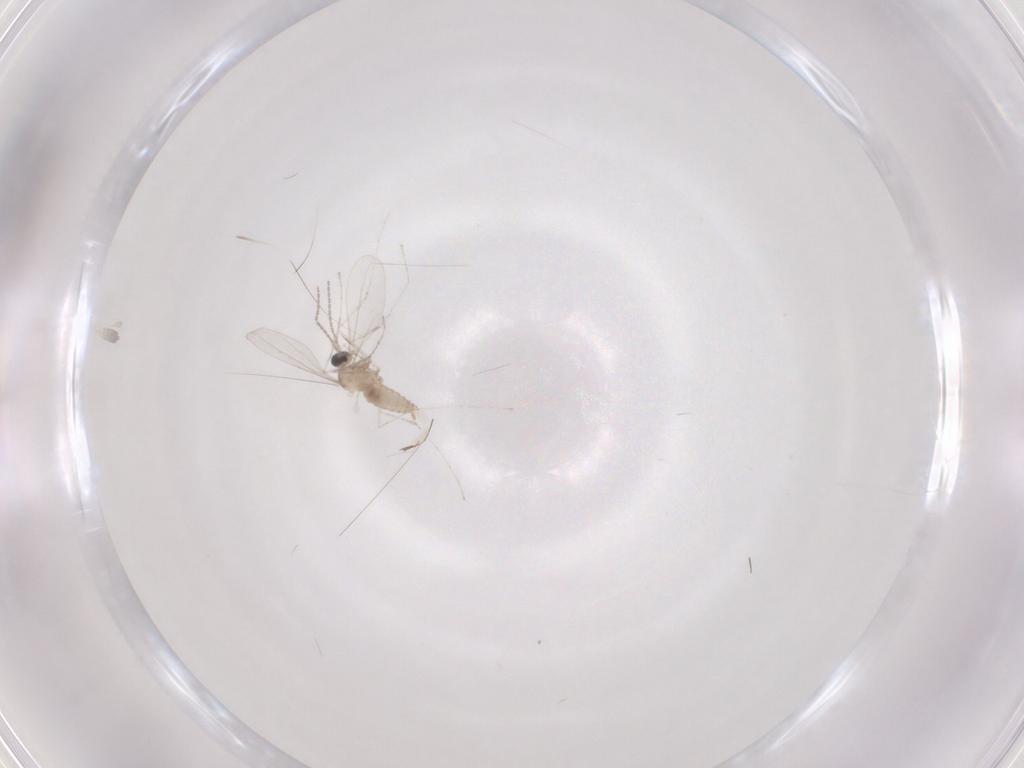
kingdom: Animalia
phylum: Arthropoda
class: Insecta
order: Diptera
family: Cecidomyiidae
